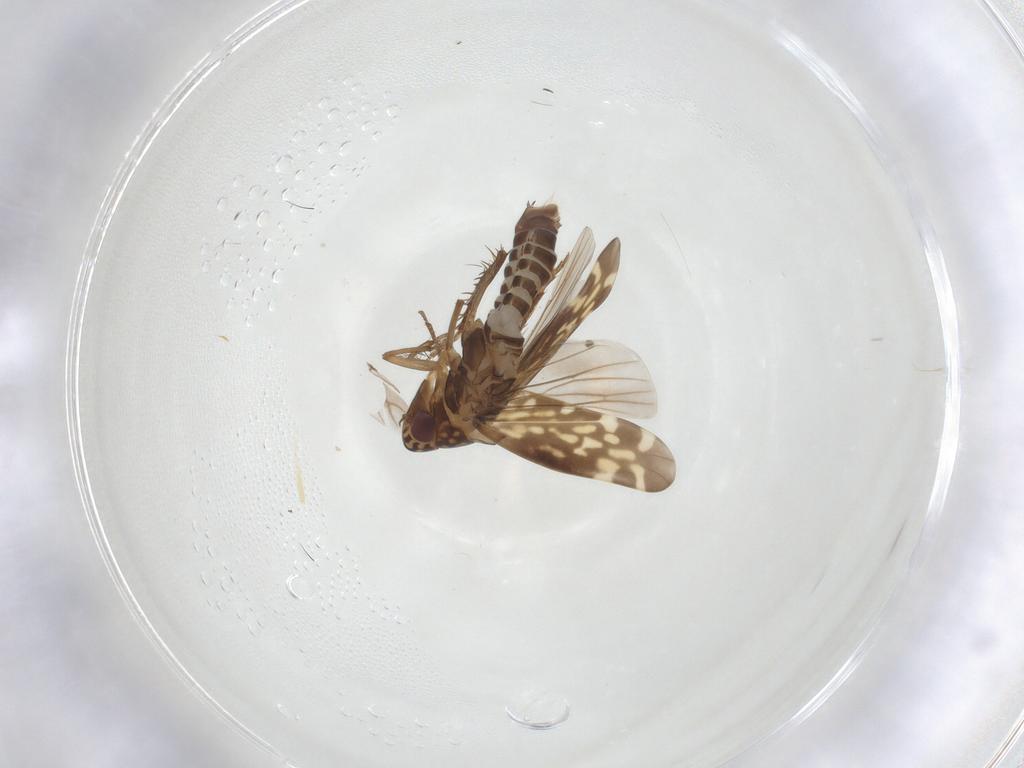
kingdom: Animalia
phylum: Arthropoda
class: Insecta
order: Hemiptera
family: Cicadellidae
